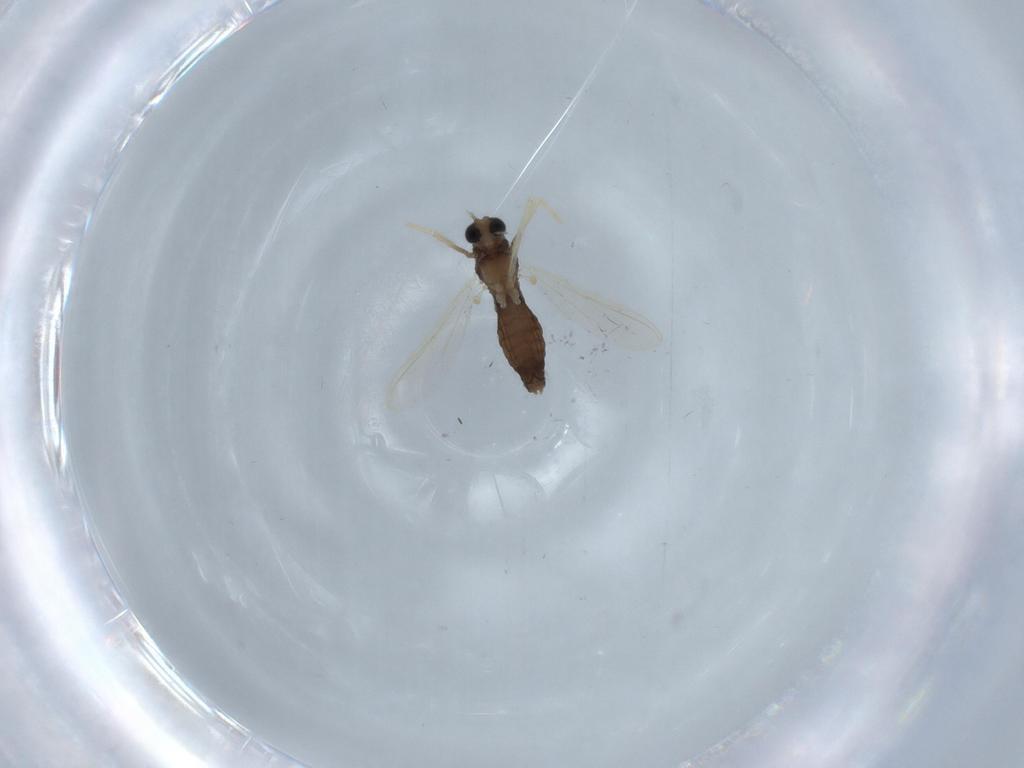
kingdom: Animalia
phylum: Arthropoda
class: Insecta
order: Diptera
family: Chironomidae
